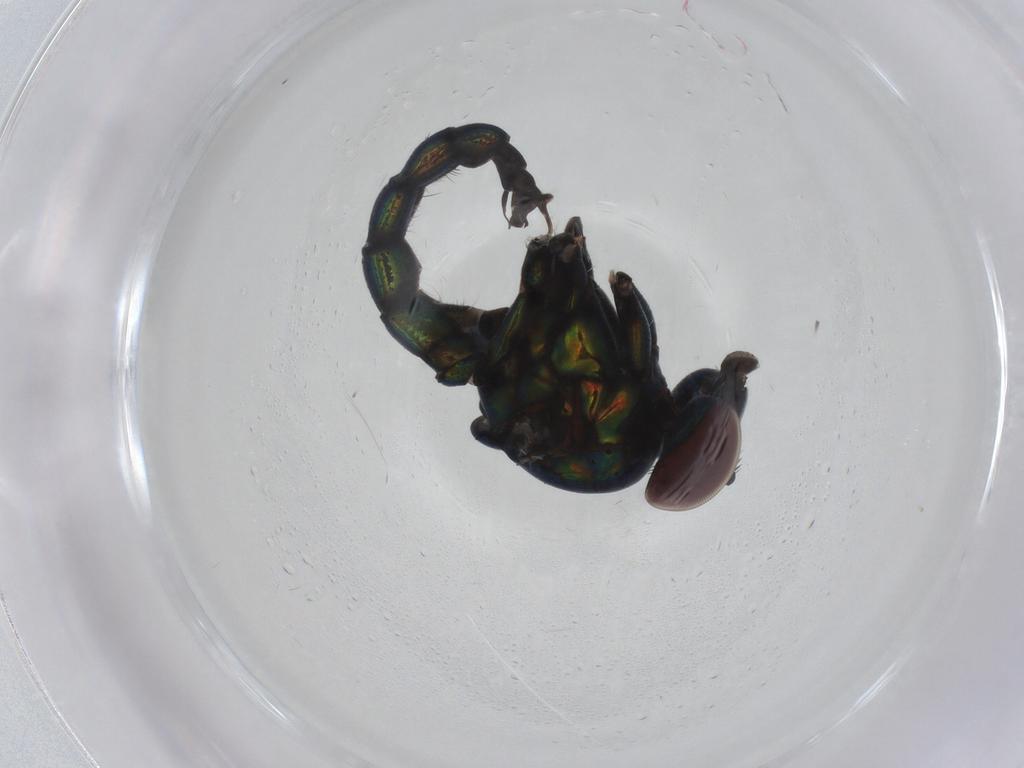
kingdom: Animalia
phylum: Arthropoda
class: Insecta
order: Diptera
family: Dolichopodidae
